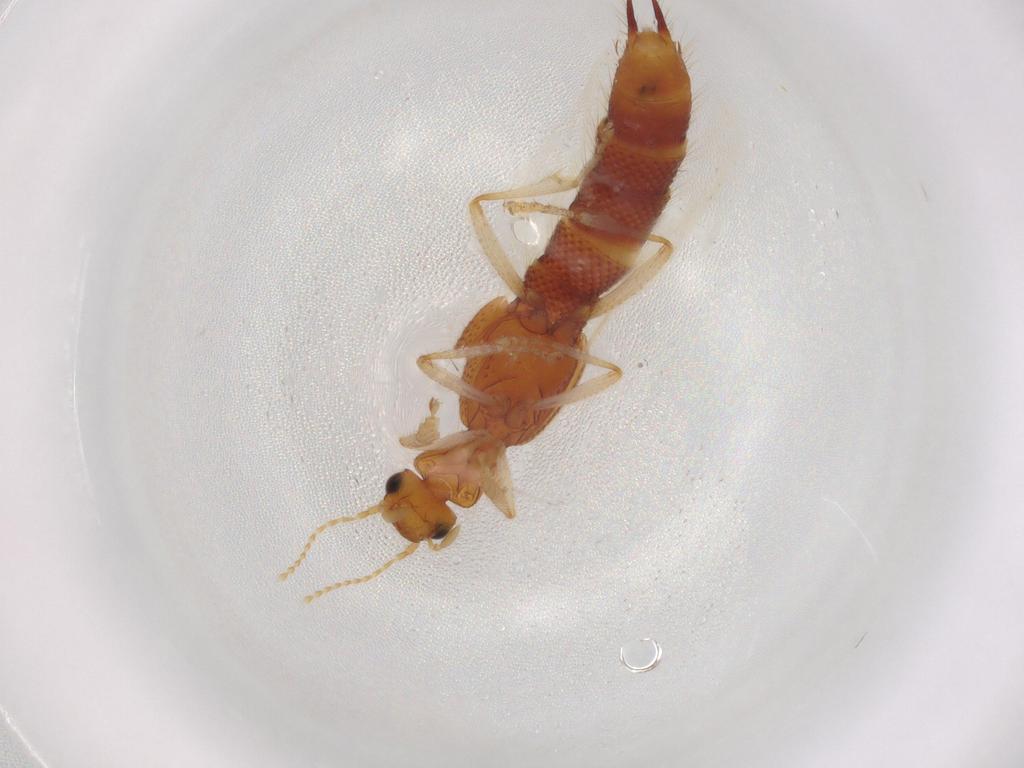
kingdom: Animalia
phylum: Arthropoda
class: Insecta
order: Coleoptera
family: Staphylinidae
